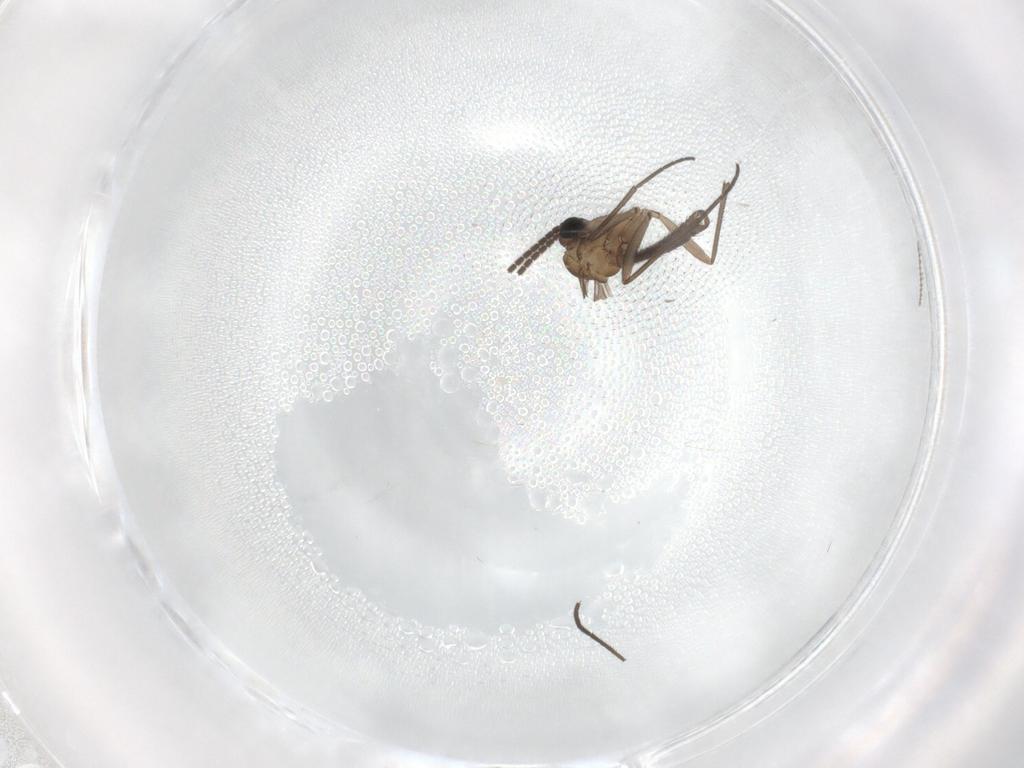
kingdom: Animalia
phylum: Arthropoda
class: Insecta
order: Diptera
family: Sciaridae
